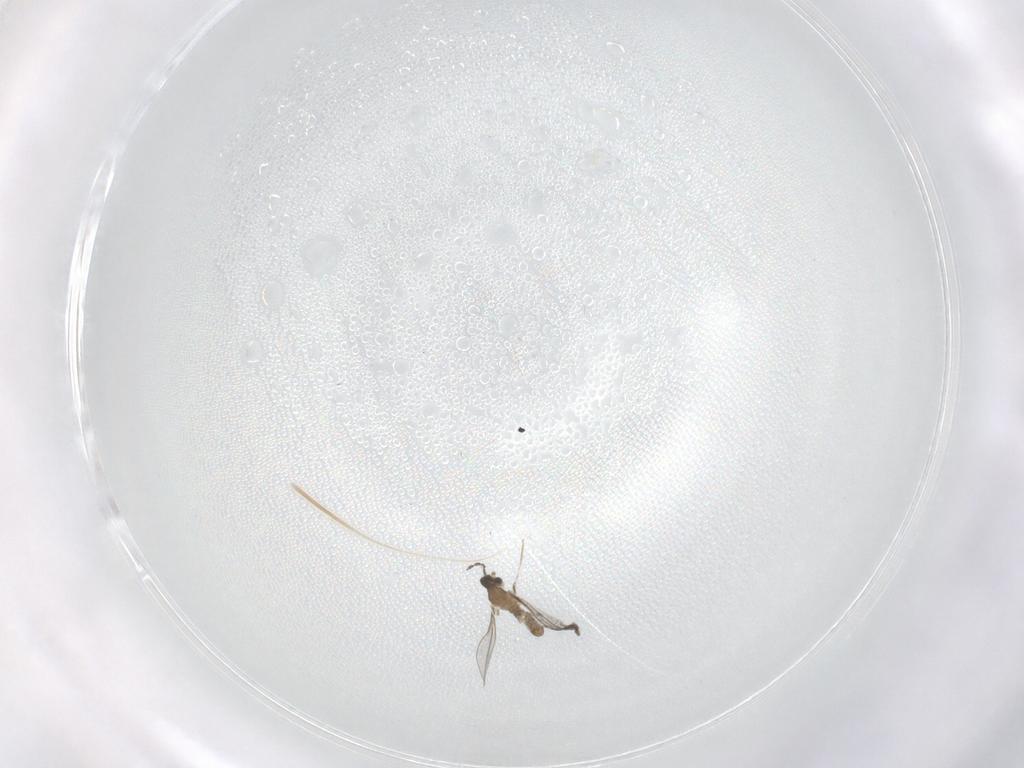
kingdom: Animalia
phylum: Arthropoda
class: Insecta
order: Diptera
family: Cecidomyiidae
